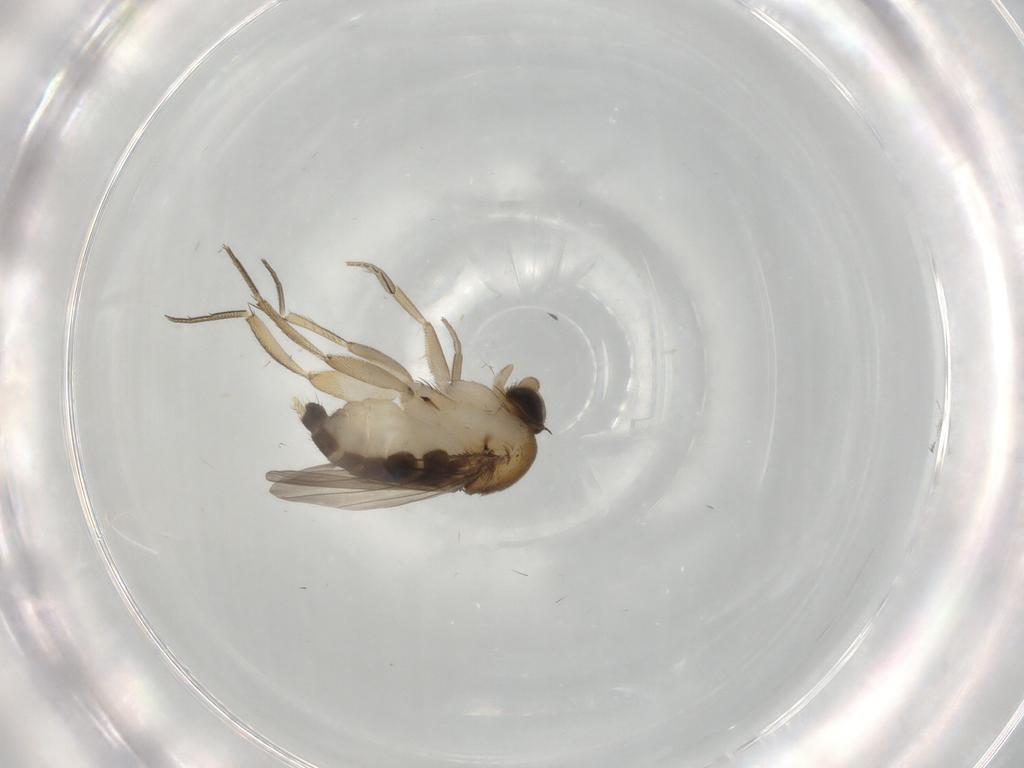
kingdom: Animalia
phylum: Arthropoda
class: Insecta
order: Diptera
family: Phoridae
